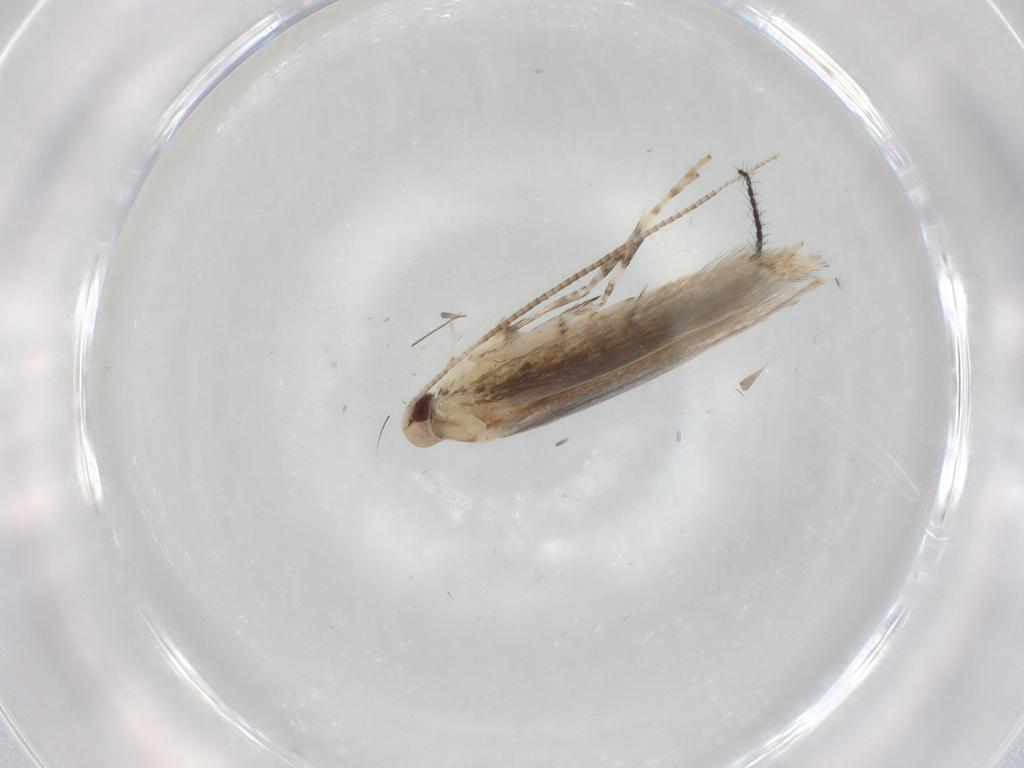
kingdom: Animalia
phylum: Arthropoda
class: Insecta
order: Lepidoptera
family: Gracillariidae
